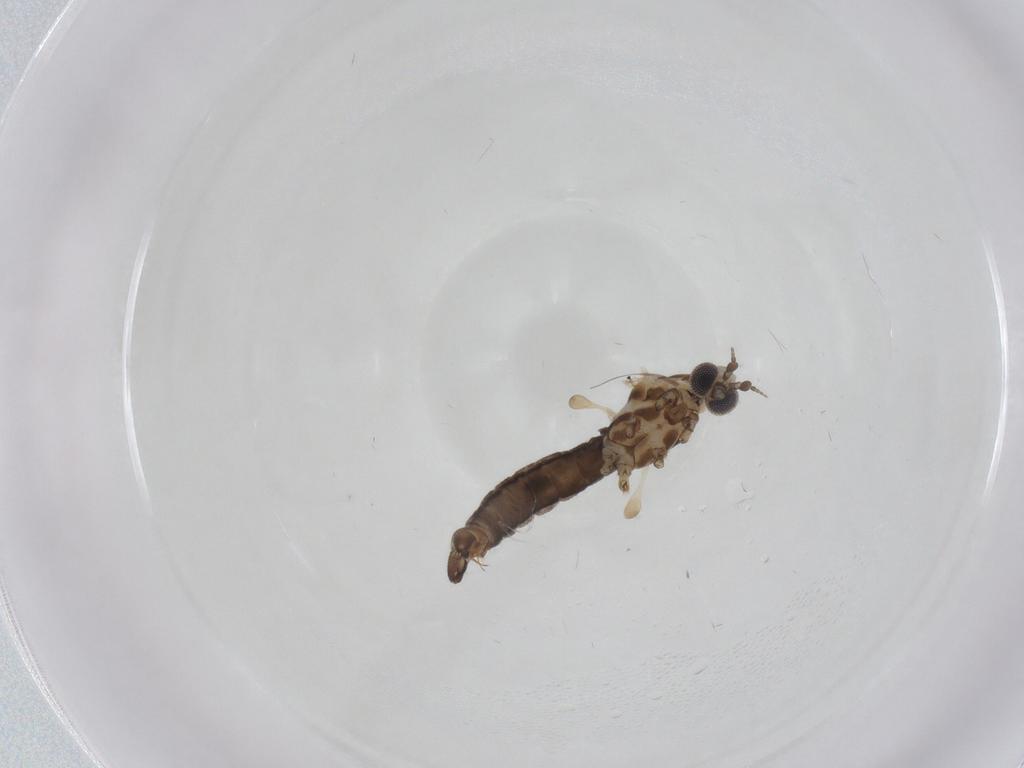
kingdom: Animalia
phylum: Arthropoda
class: Insecta
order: Diptera
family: Limoniidae
